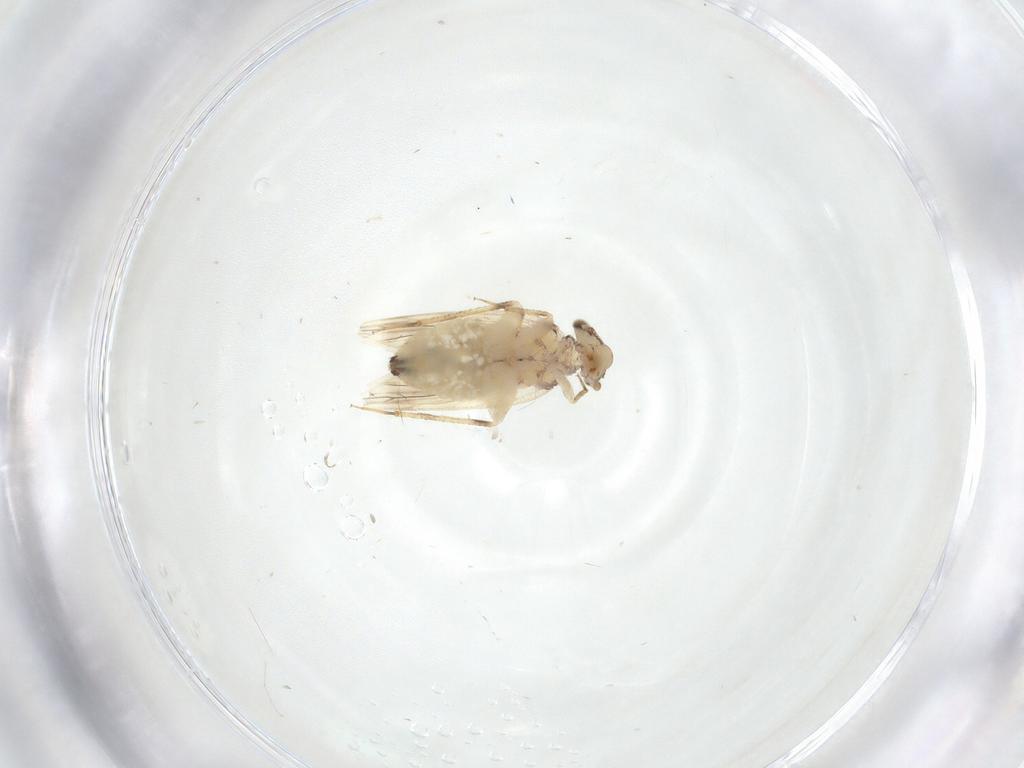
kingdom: Animalia
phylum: Arthropoda
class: Insecta
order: Psocodea
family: Lepidopsocidae
